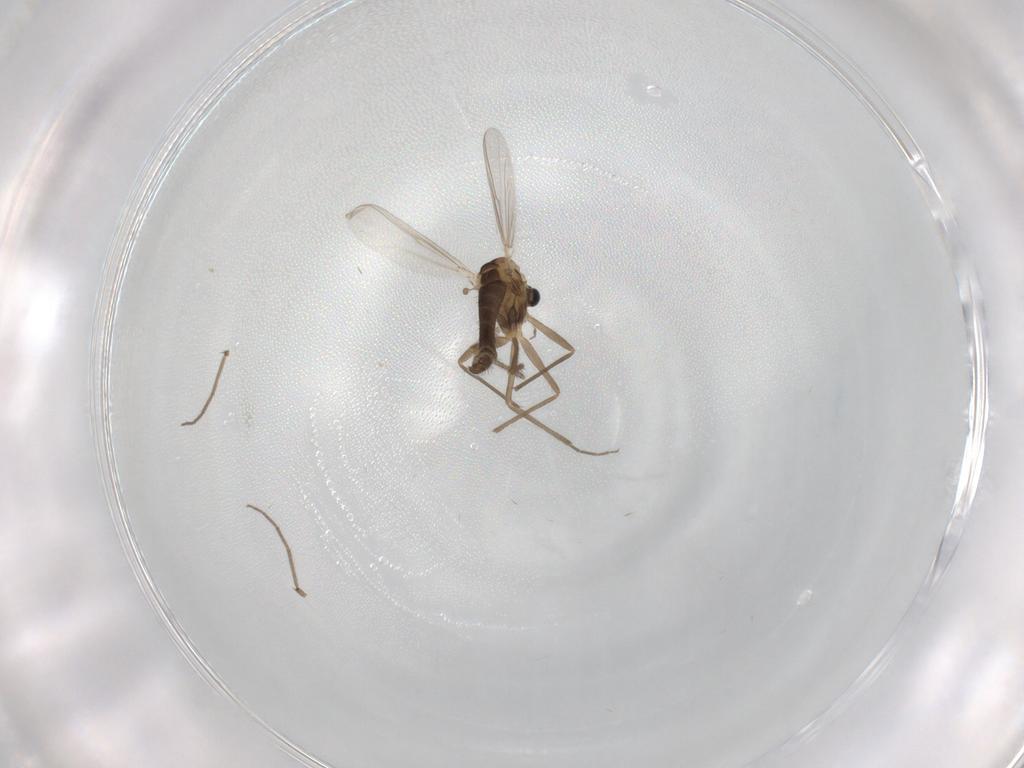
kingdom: Animalia
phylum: Arthropoda
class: Insecta
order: Diptera
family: Chironomidae
